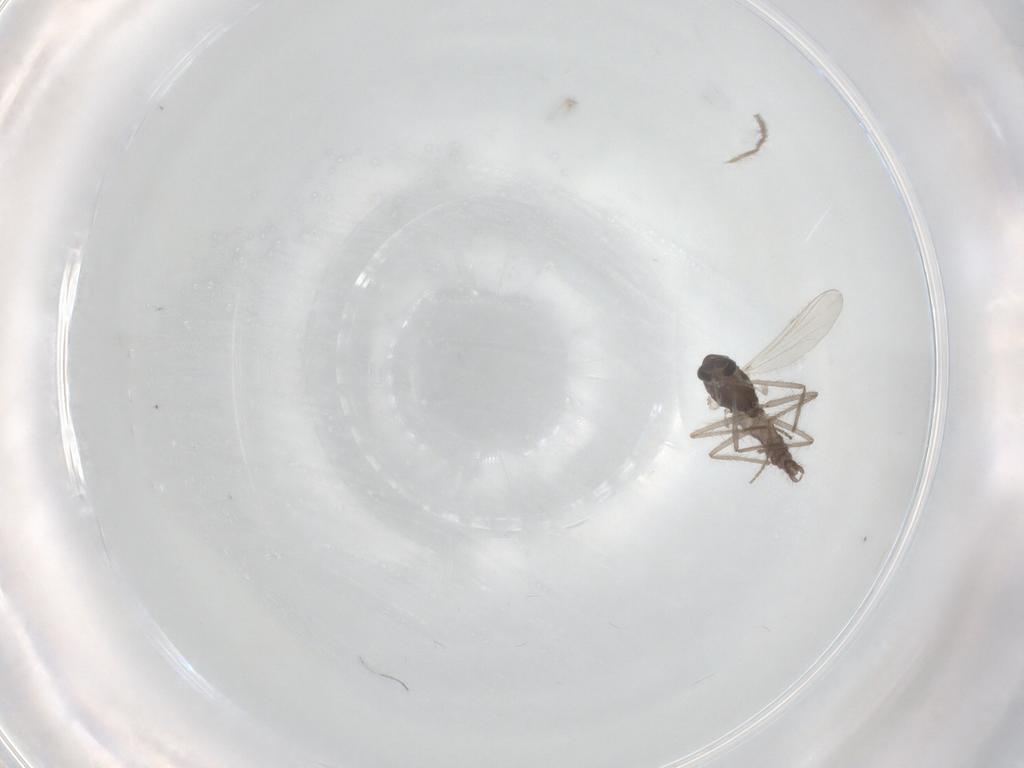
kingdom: Animalia
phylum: Arthropoda
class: Insecta
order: Diptera
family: Chironomidae
